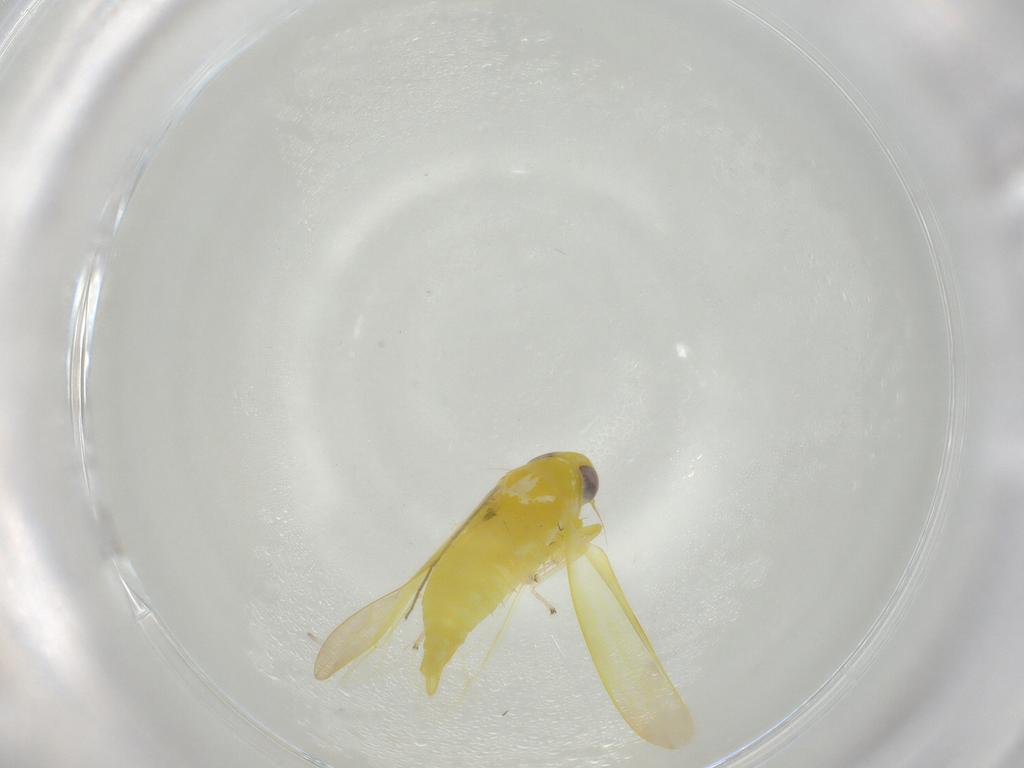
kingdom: Animalia
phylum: Arthropoda
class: Insecta
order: Hemiptera
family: Cicadellidae
